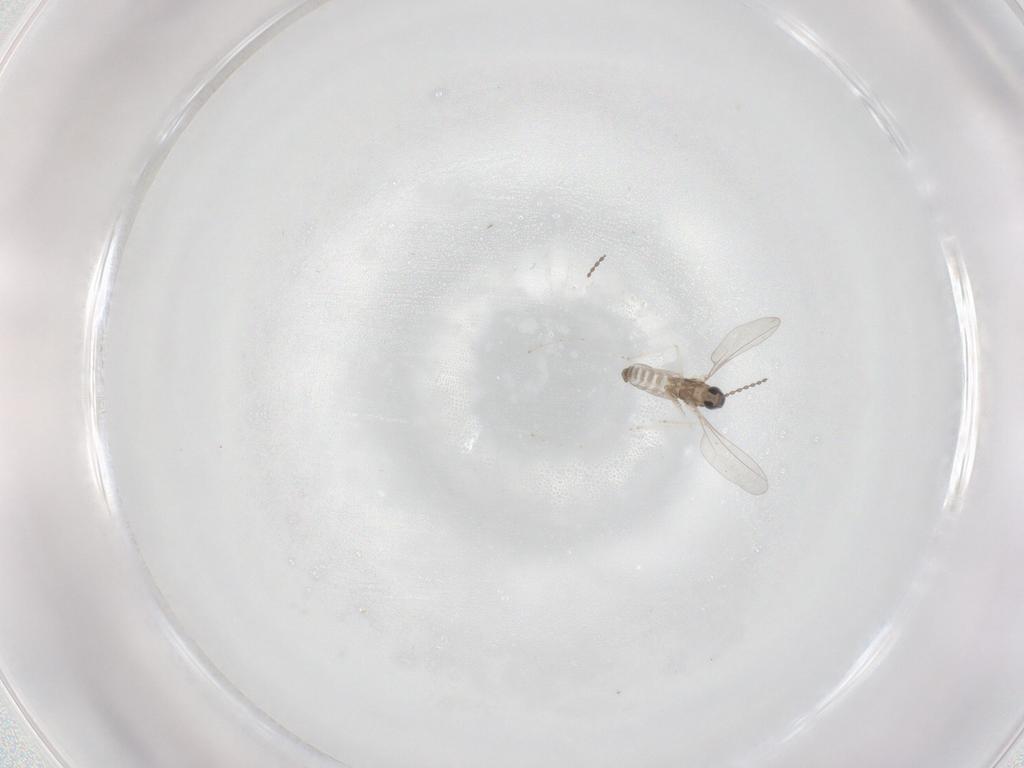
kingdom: Animalia
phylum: Arthropoda
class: Insecta
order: Diptera
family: Cecidomyiidae
